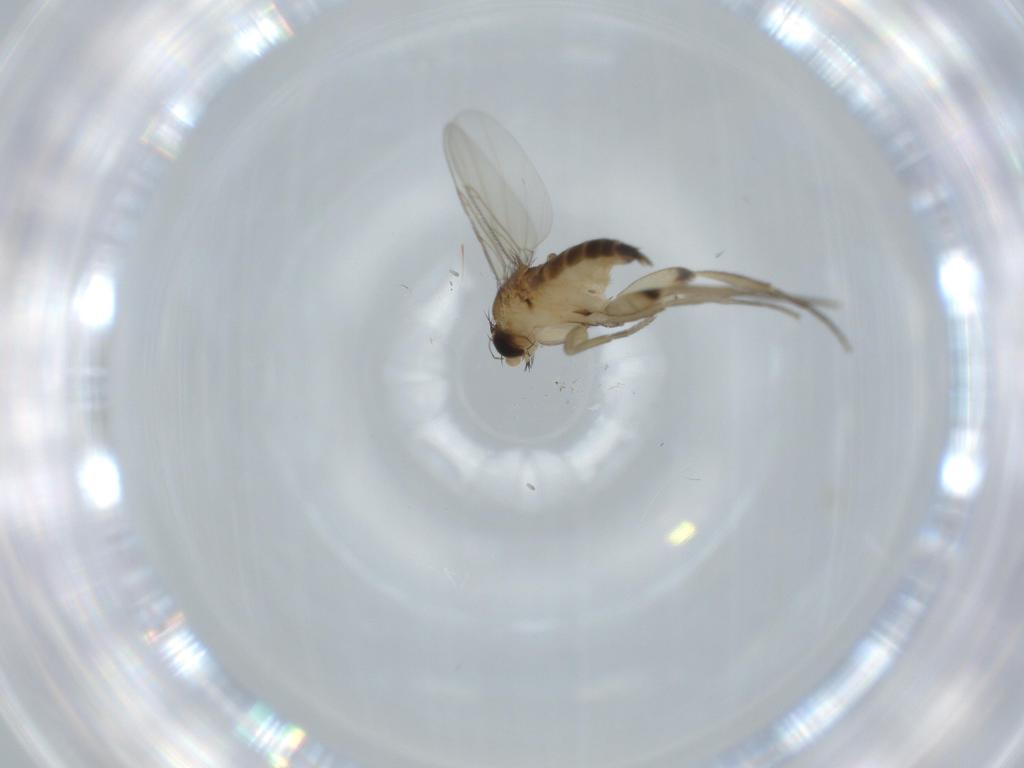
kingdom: Animalia
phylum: Arthropoda
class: Insecta
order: Diptera
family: Phoridae
